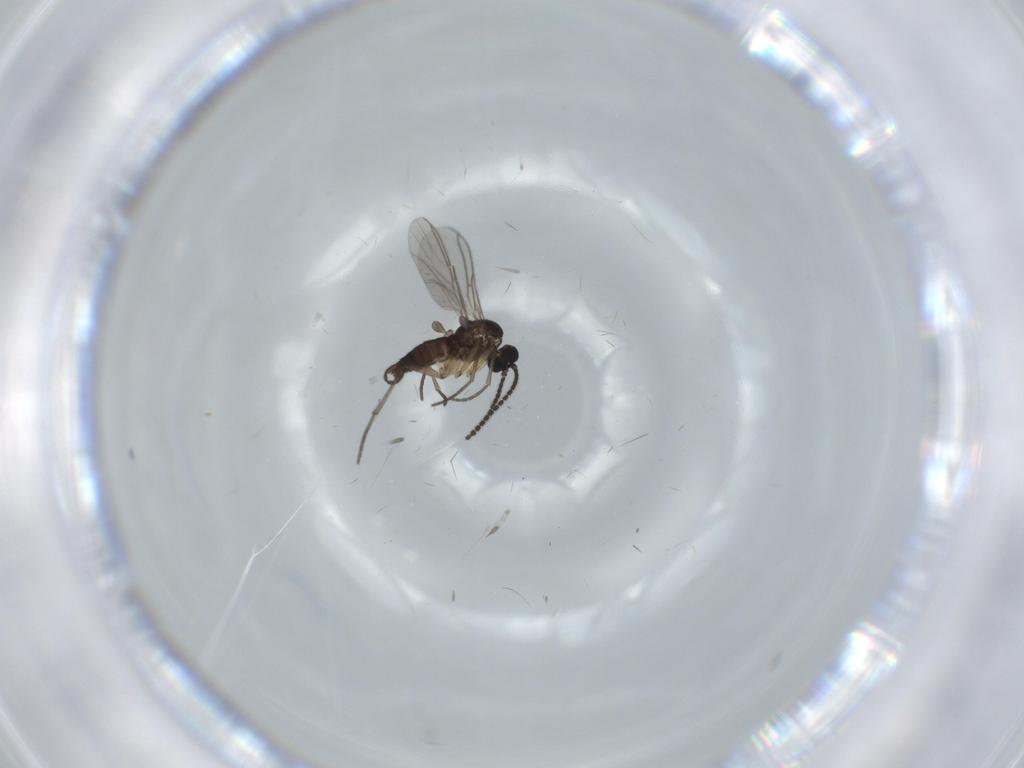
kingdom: Animalia
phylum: Arthropoda
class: Insecta
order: Diptera
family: Sciaridae
